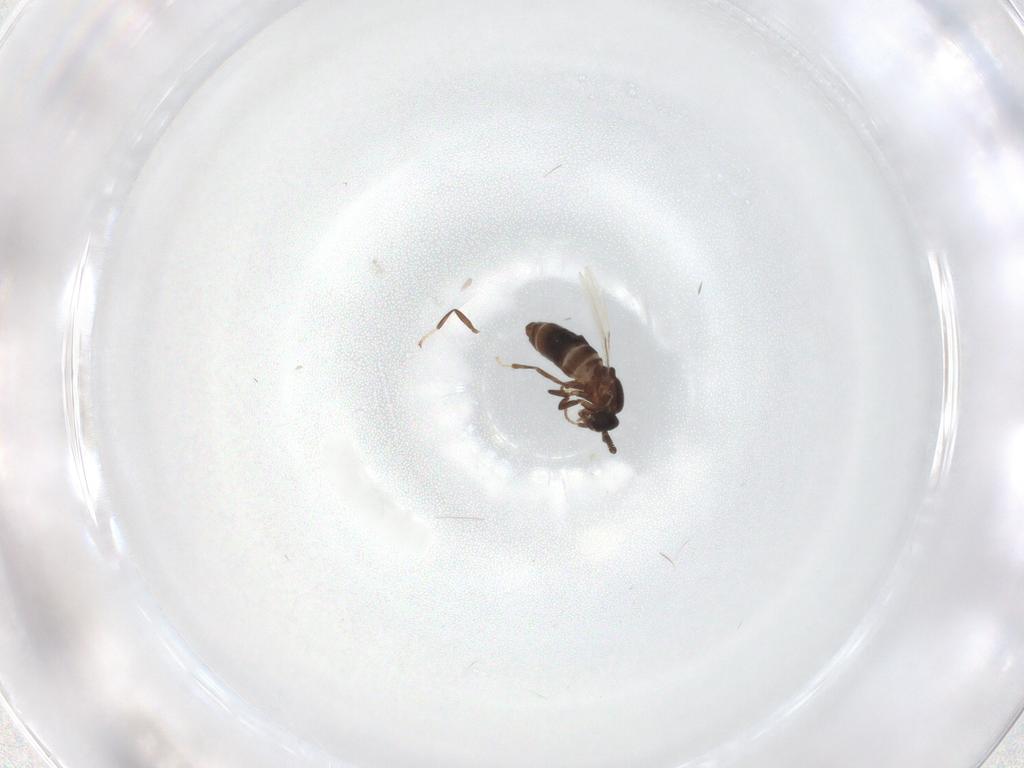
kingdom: Animalia
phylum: Arthropoda
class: Insecta
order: Diptera
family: Scatopsidae
